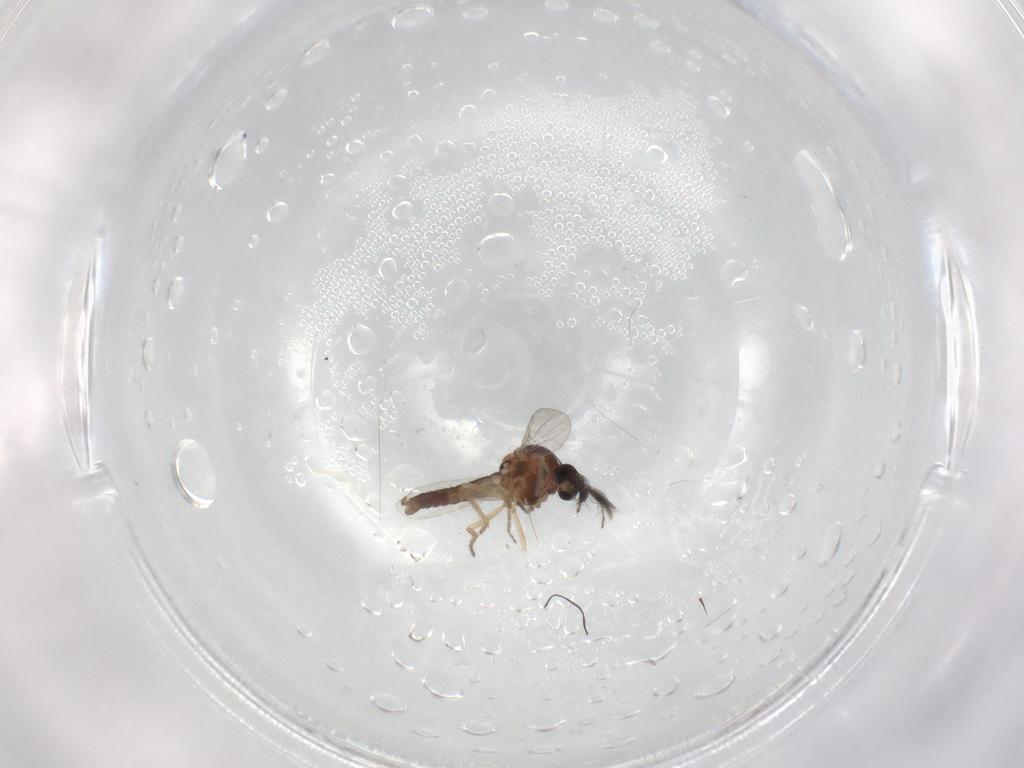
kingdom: Animalia
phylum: Arthropoda
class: Insecta
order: Diptera
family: Ceratopogonidae
